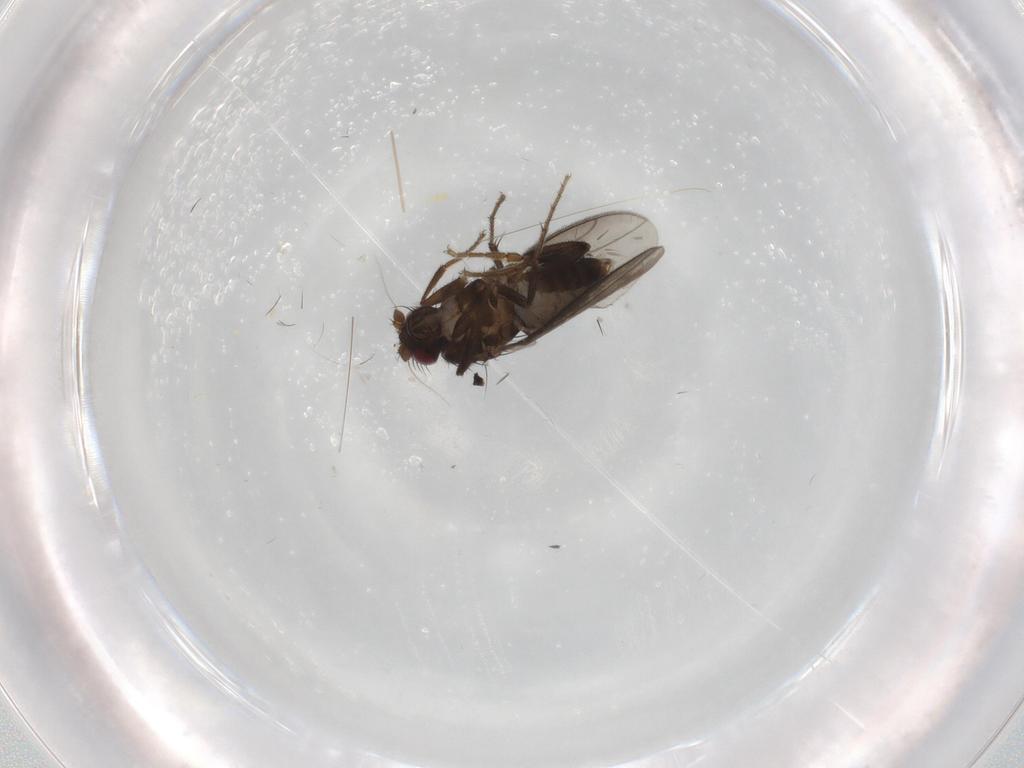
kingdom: Animalia
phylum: Arthropoda
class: Insecta
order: Diptera
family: Sphaeroceridae
